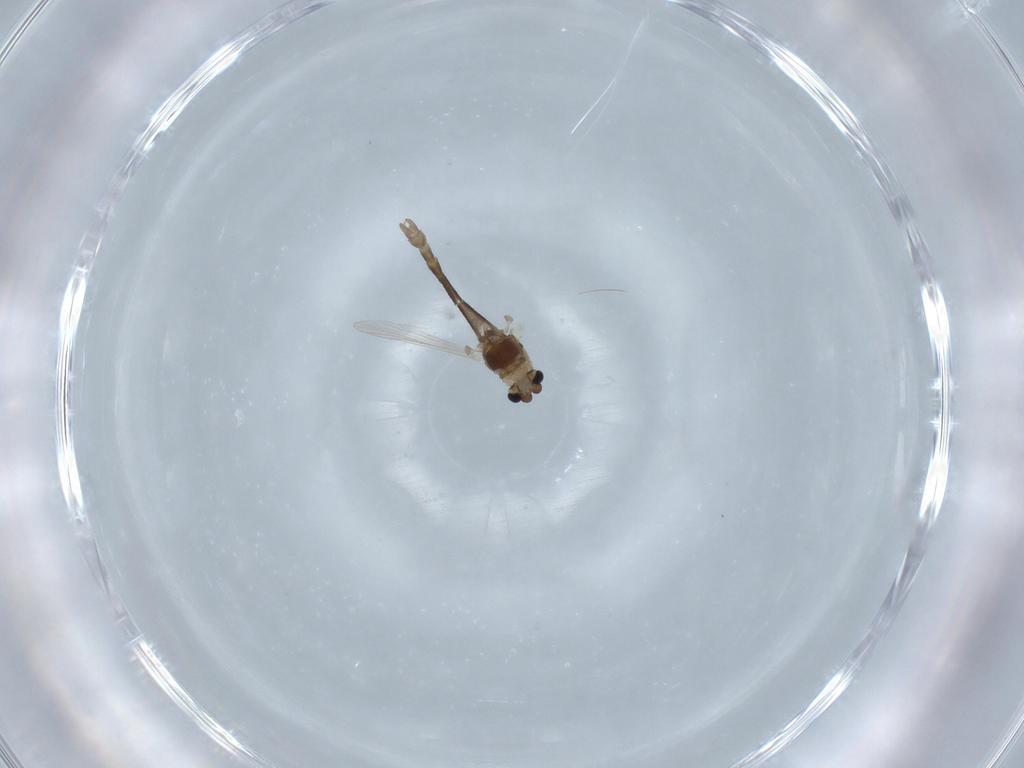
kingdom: Animalia
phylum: Arthropoda
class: Insecta
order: Diptera
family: Chironomidae
